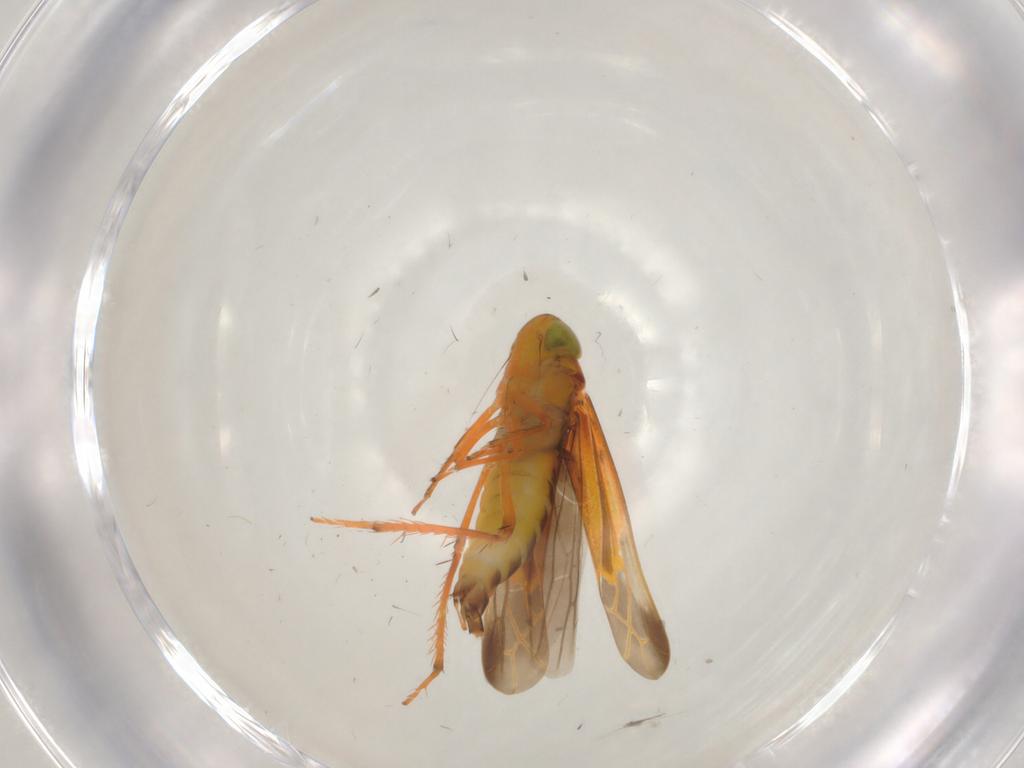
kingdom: Animalia
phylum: Arthropoda
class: Insecta
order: Hemiptera
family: Cicadellidae
